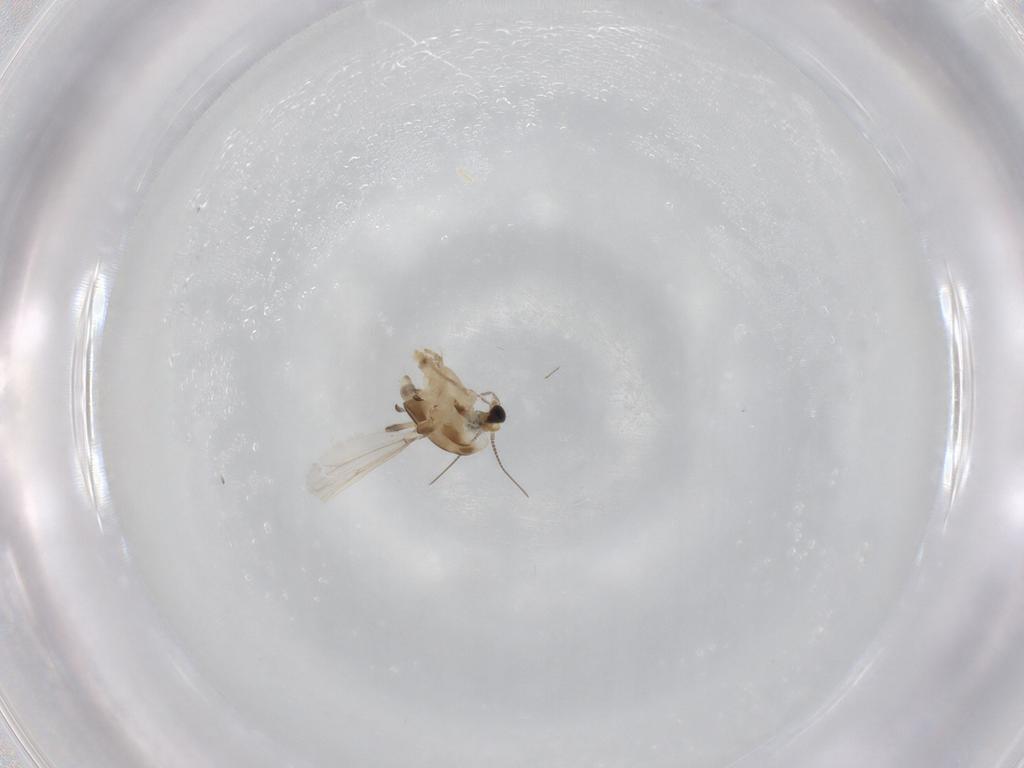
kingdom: Animalia
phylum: Arthropoda
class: Insecta
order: Diptera
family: Chironomidae
